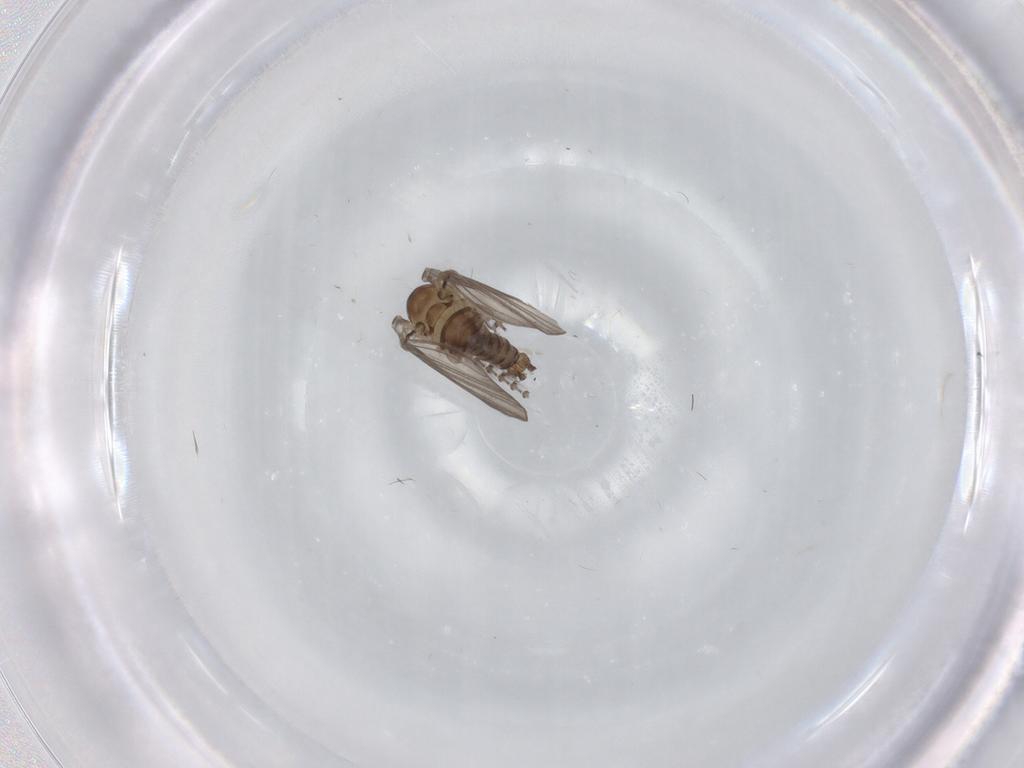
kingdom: Animalia
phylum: Arthropoda
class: Insecta
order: Diptera
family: Psychodidae
